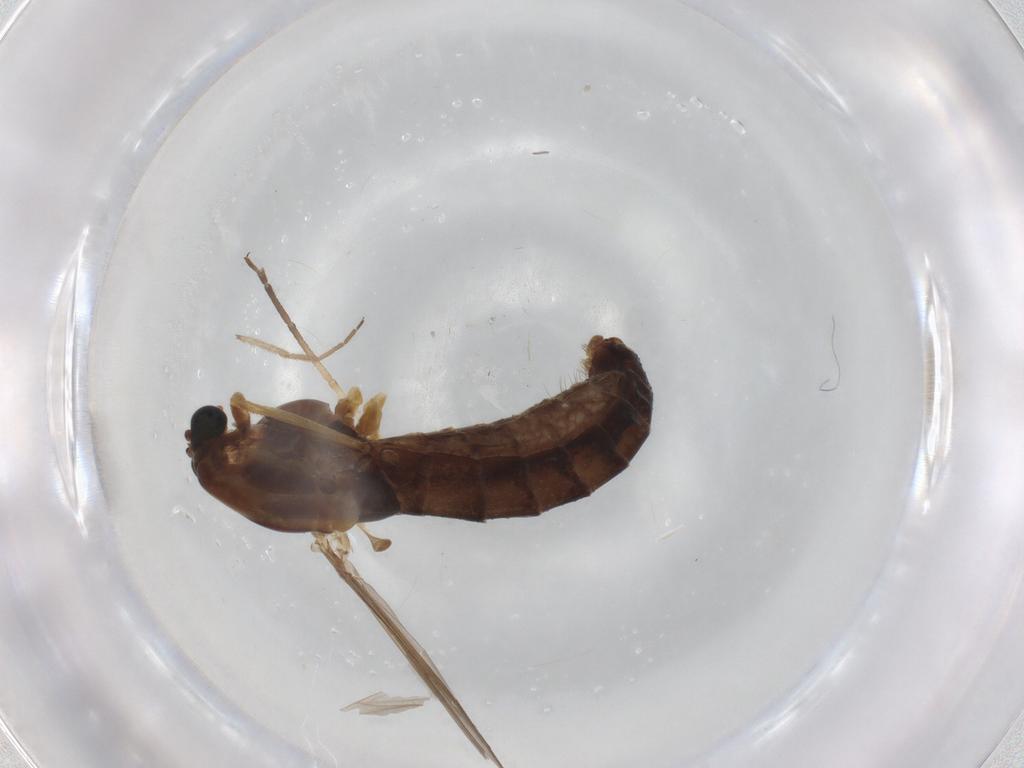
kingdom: Animalia
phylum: Arthropoda
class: Insecta
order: Diptera
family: Chironomidae
